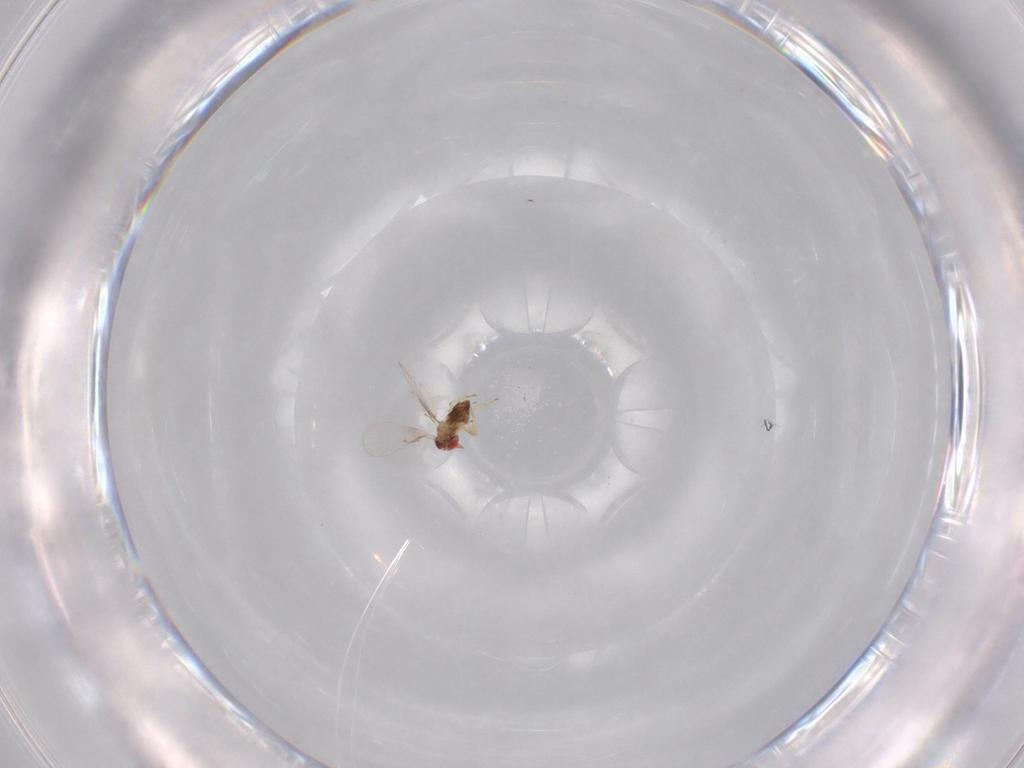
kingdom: Animalia
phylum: Arthropoda
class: Insecta
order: Hymenoptera
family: Trichogrammatidae
